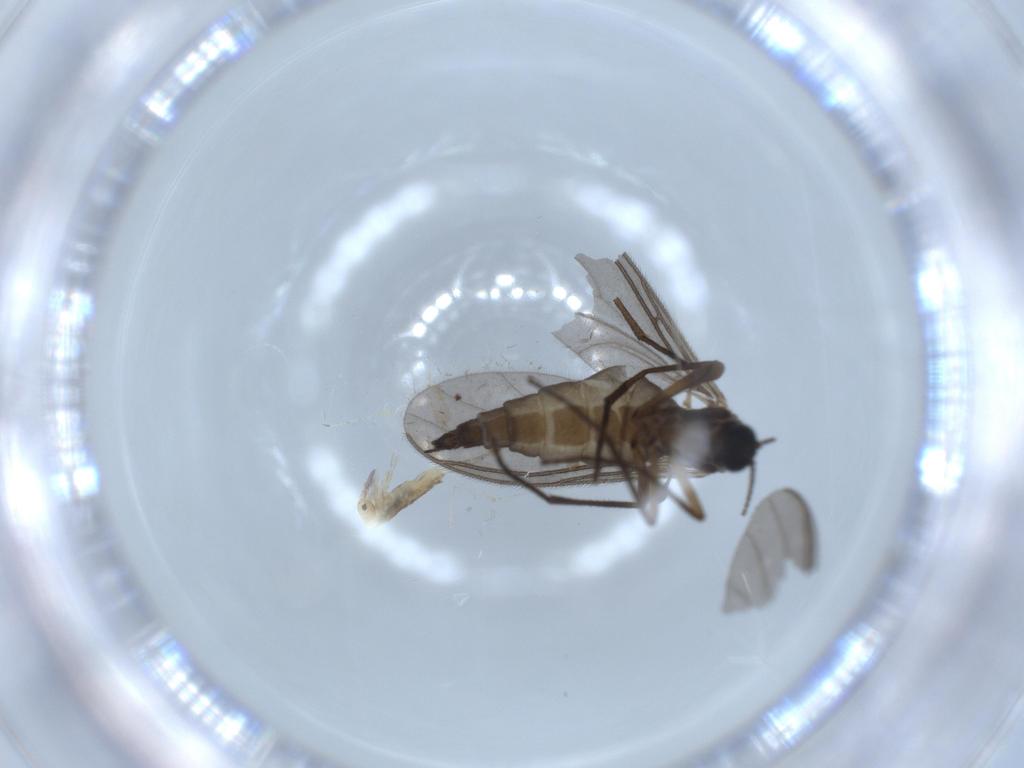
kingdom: Animalia
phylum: Arthropoda
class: Insecta
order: Diptera
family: Sciaridae
